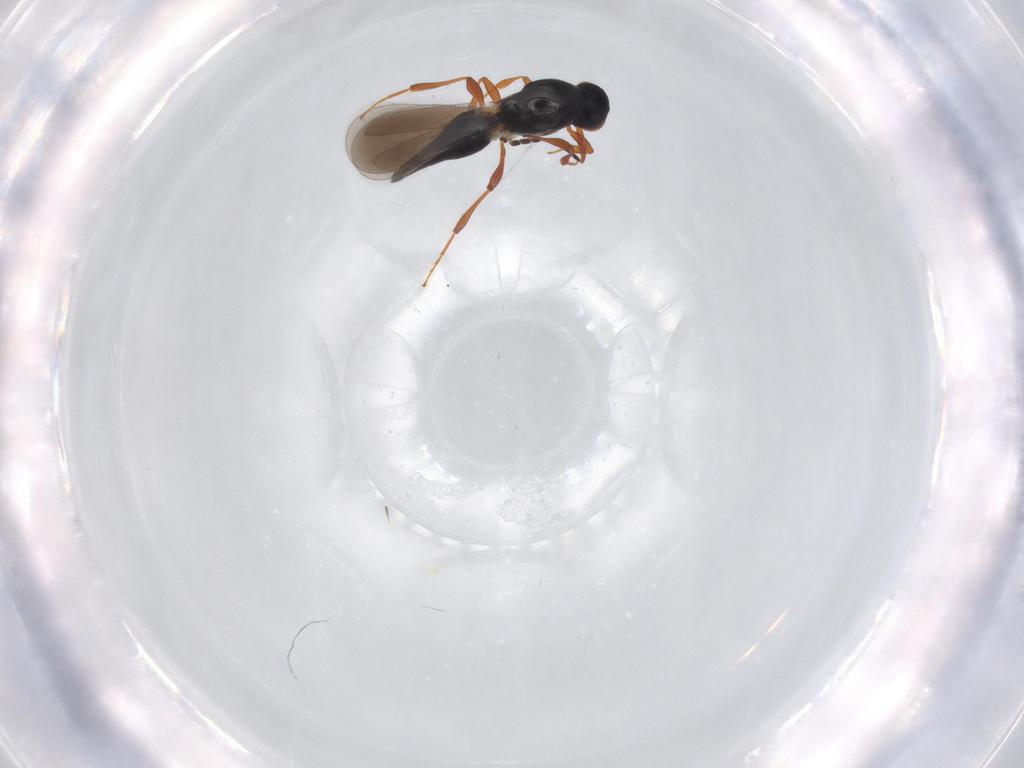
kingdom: Animalia
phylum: Arthropoda
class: Insecta
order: Hymenoptera
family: Platygastridae
